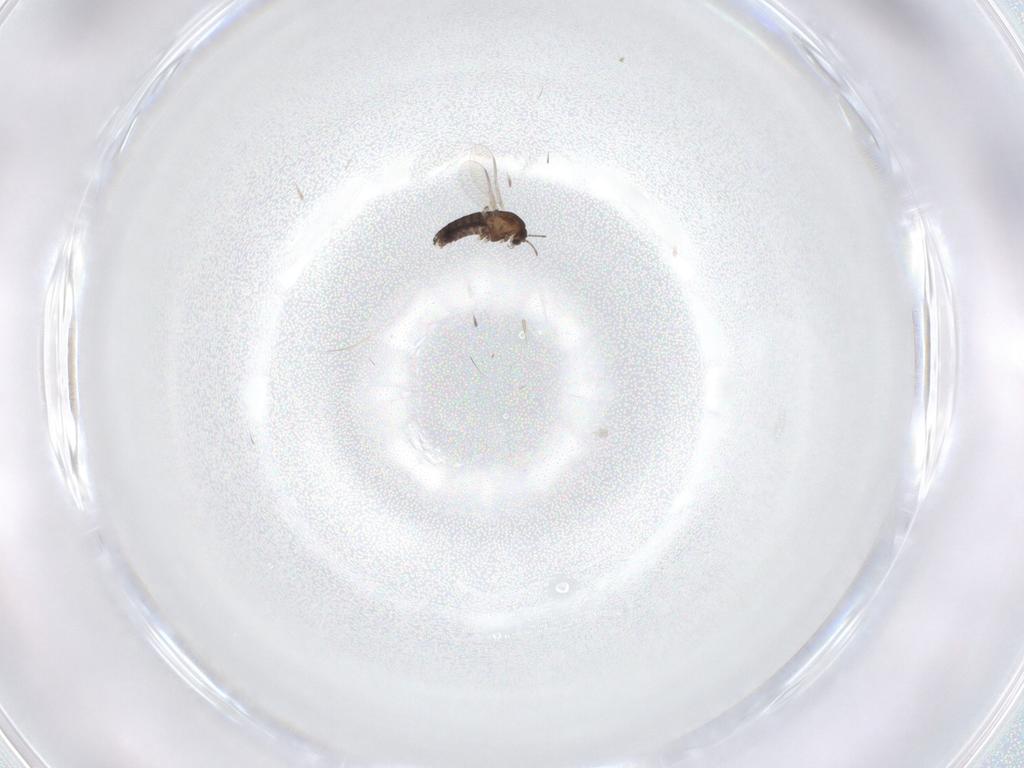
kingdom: Animalia
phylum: Arthropoda
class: Insecta
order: Diptera
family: Chironomidae
